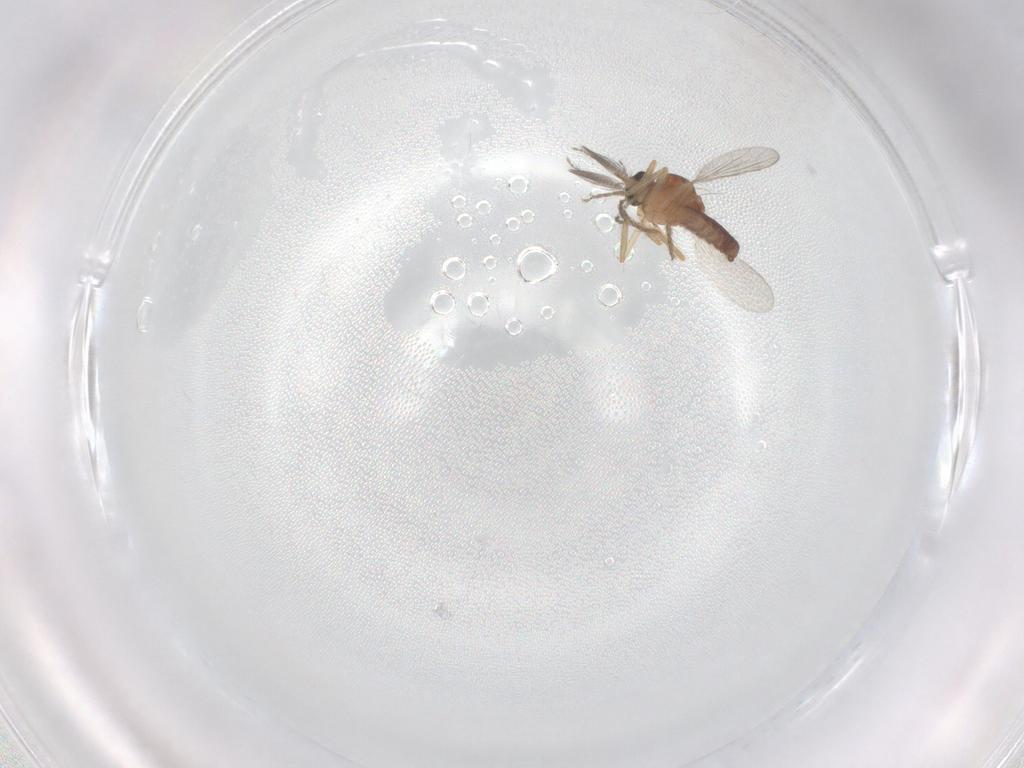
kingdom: Animalia
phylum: Arthropoda
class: Insecta
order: Diptera
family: Ceratopogonidae
